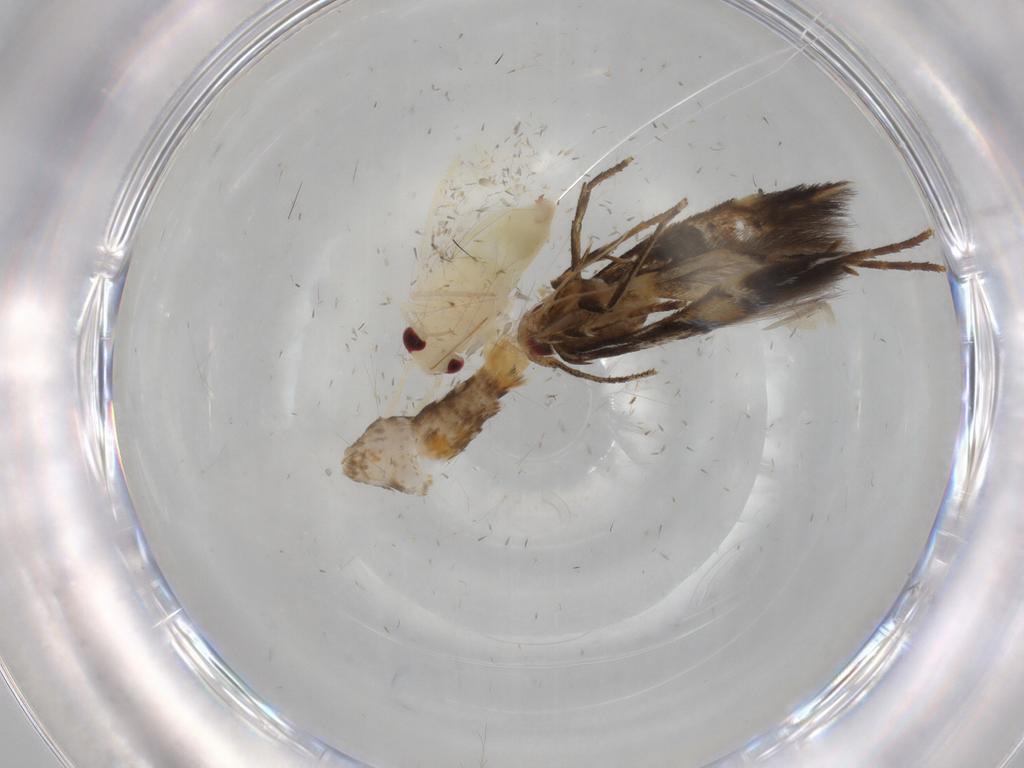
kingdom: Animalia
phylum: Arthropoda
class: Insecta
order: Lepidoptera
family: Cosmopterigidae
